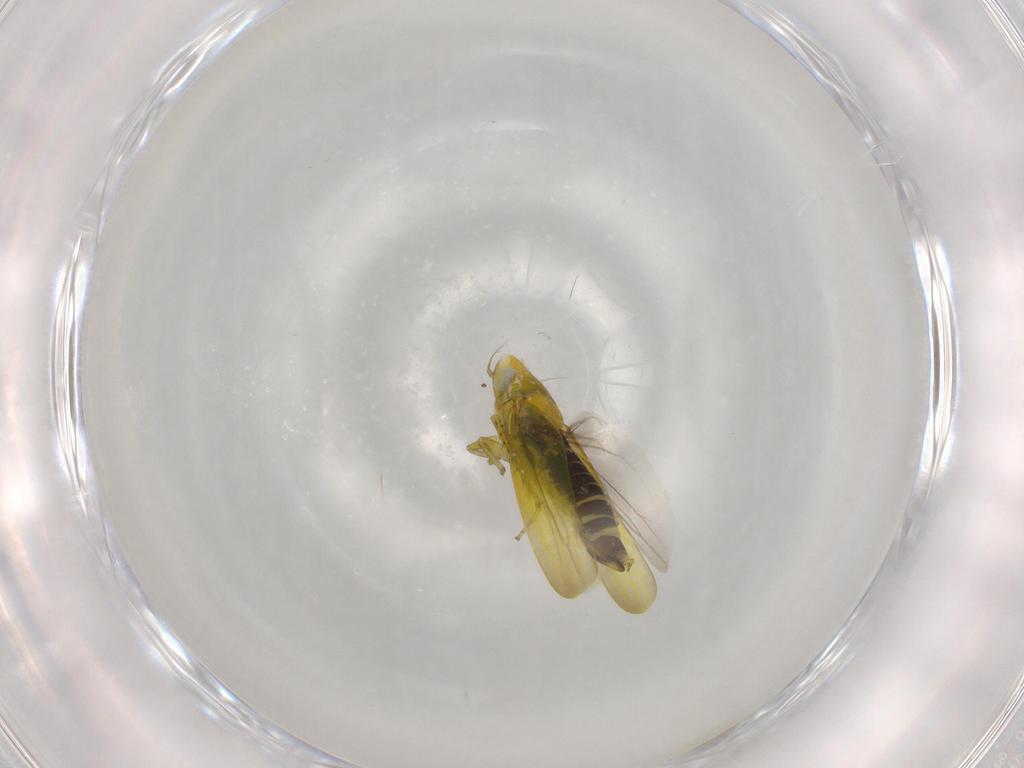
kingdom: Animalia
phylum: Arthropoda
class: Insecta
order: Hemiptera
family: Cicadellidae
